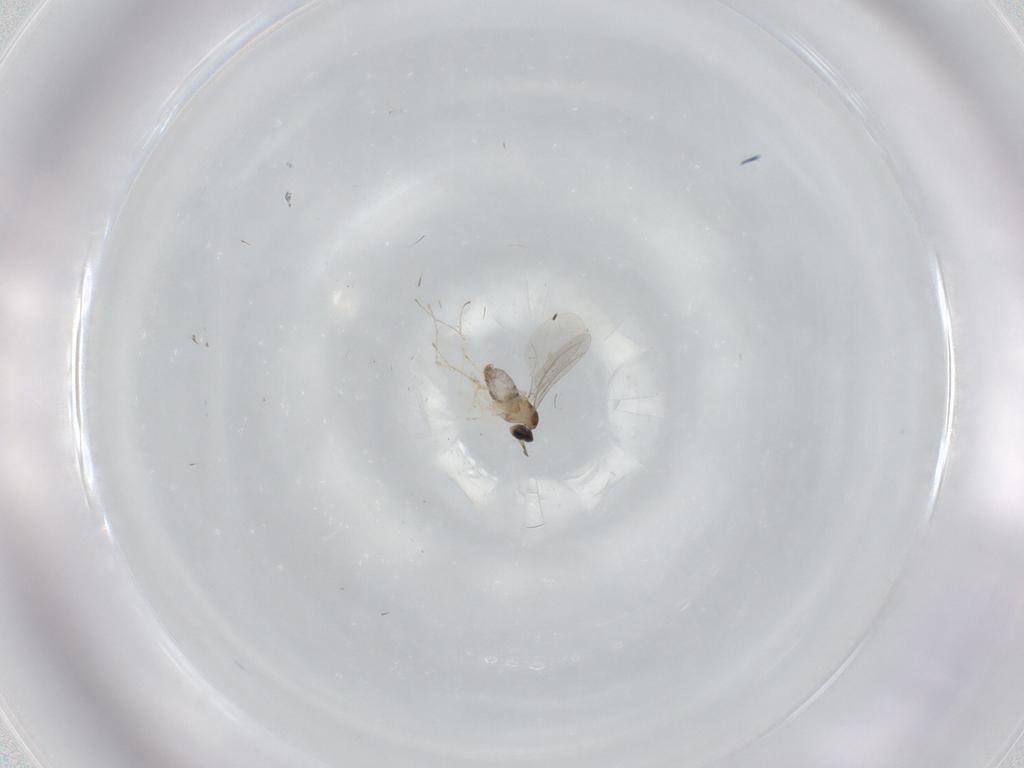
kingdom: Animalia
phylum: Arthropoda
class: Insecta
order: Diptera
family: Cecidomyiidae
